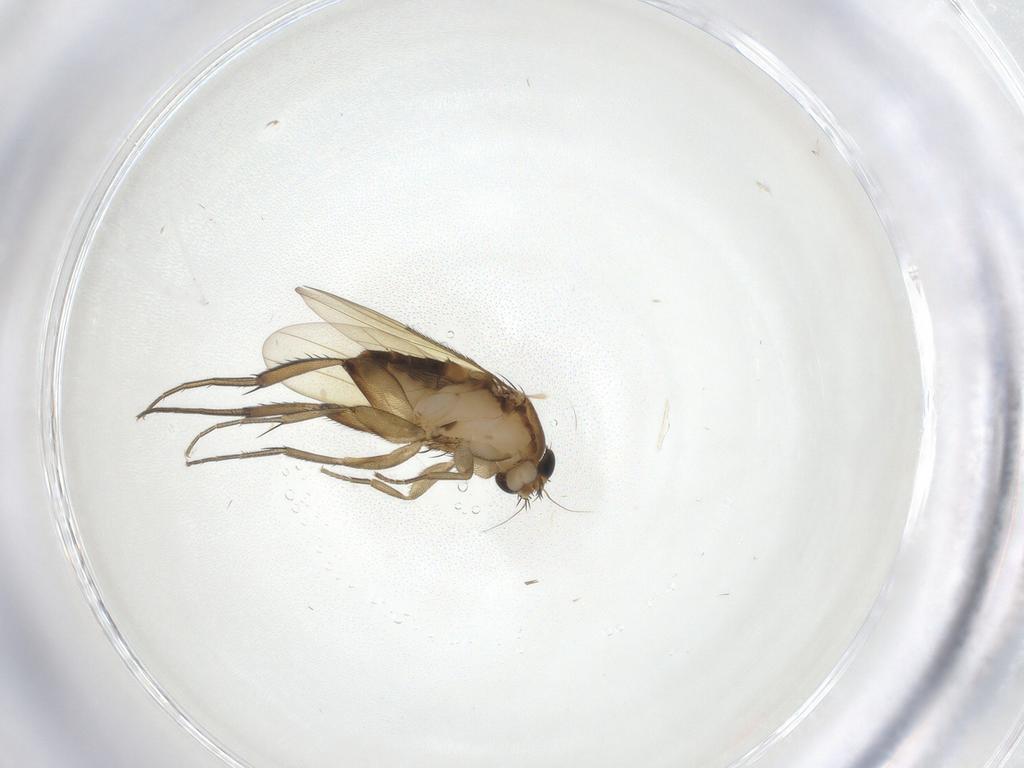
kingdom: Animalia
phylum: Arthropoda
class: Insecta
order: Diptera
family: Phoridae
